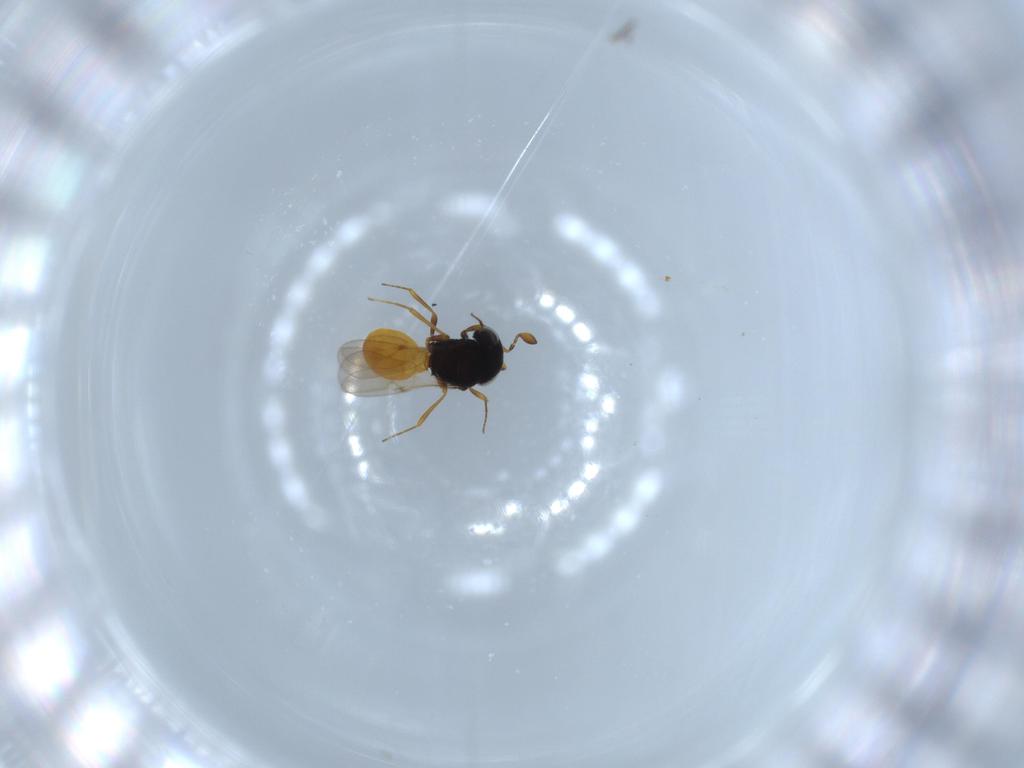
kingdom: Animalia
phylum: Arthropoda
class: Insecta
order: Hymenoptera
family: Scelionidae
